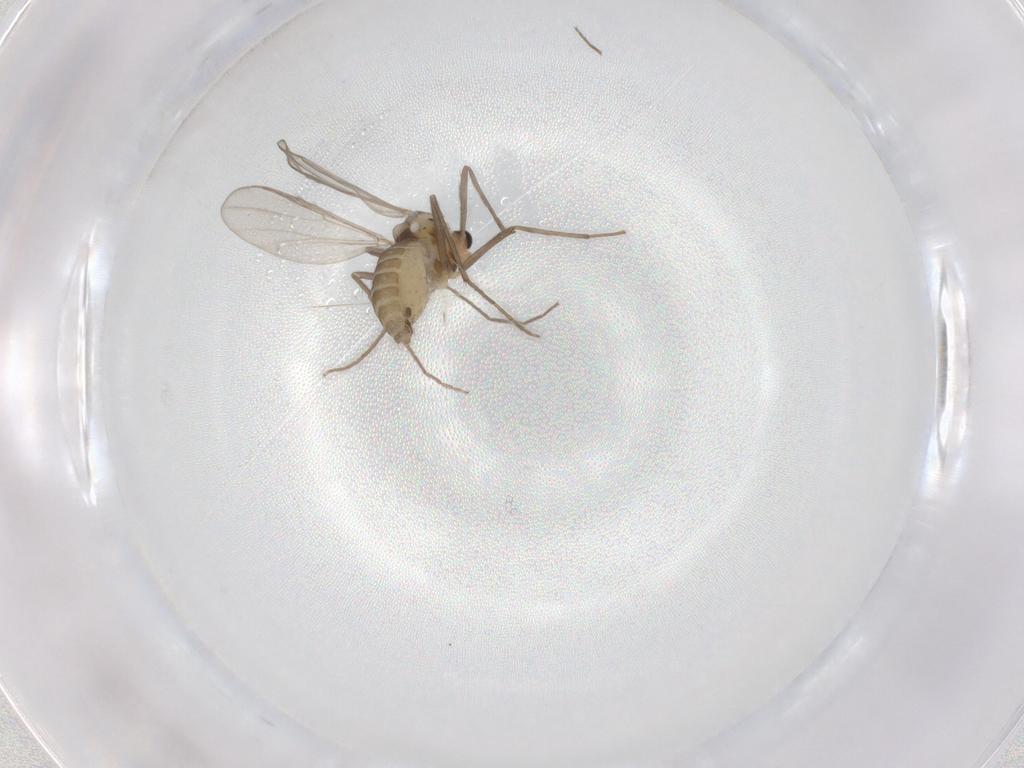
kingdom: Animalia
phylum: Arthropoda
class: Insecta
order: Diptera
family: Chironomidae
